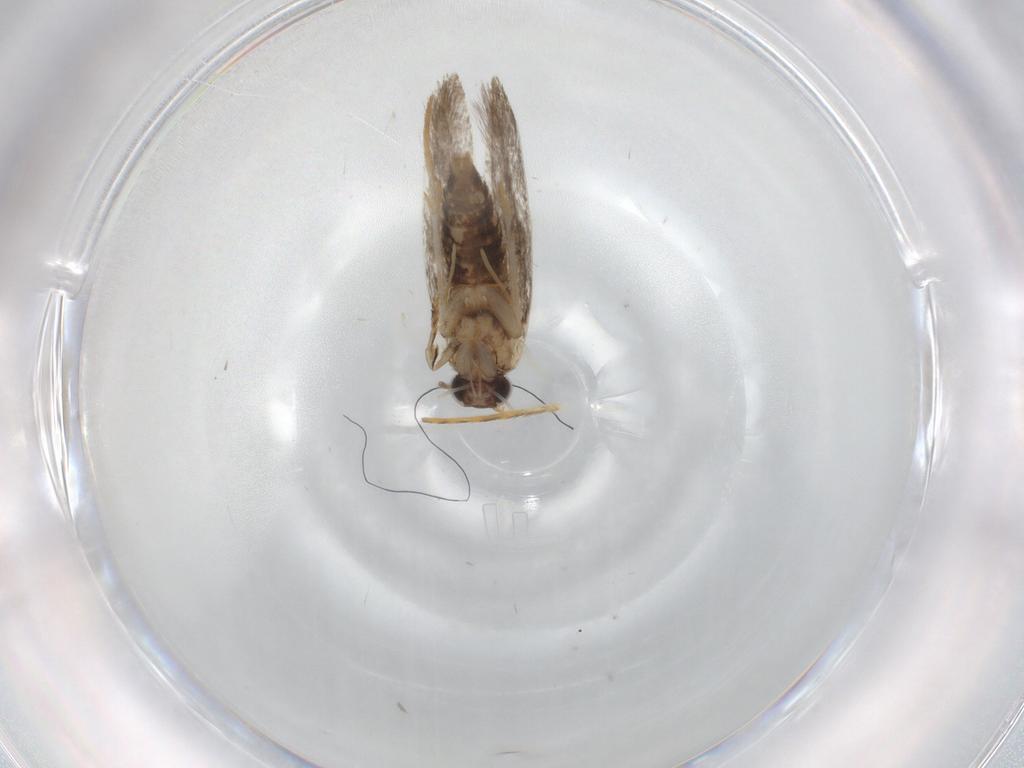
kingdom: Animalia
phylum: Arthropoda
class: Insecta
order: Lepidoptera
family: Tineidae
